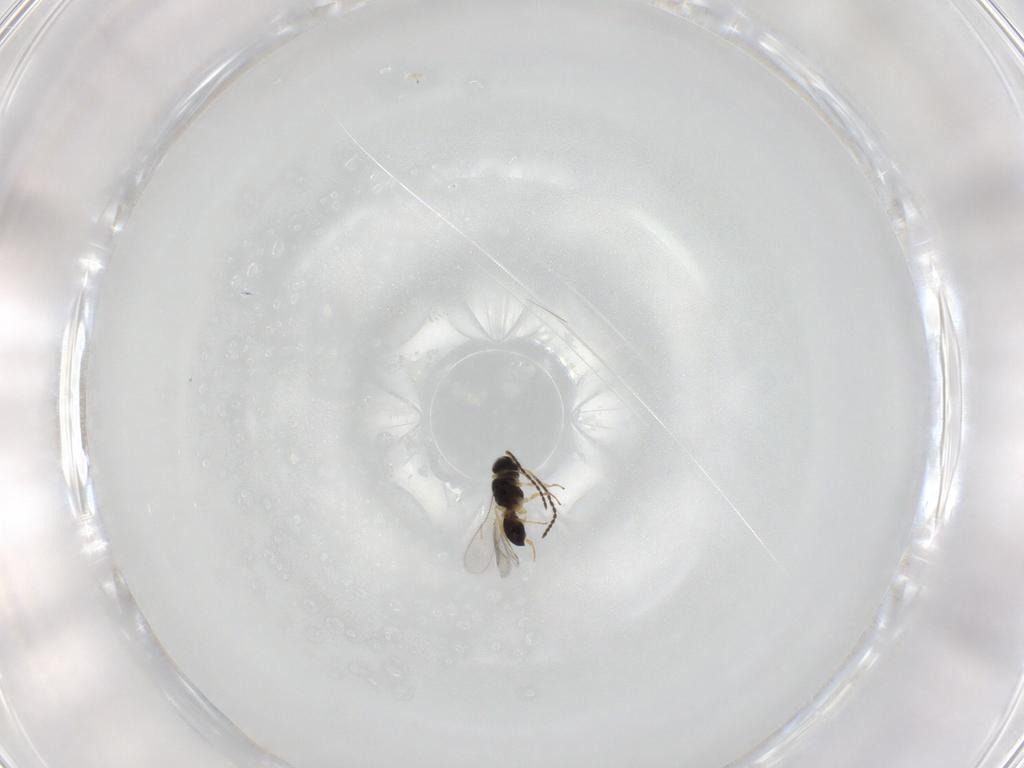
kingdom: Animalia
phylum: Arthropoda
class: Insecta
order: Hymenoptera
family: Scelionidae
